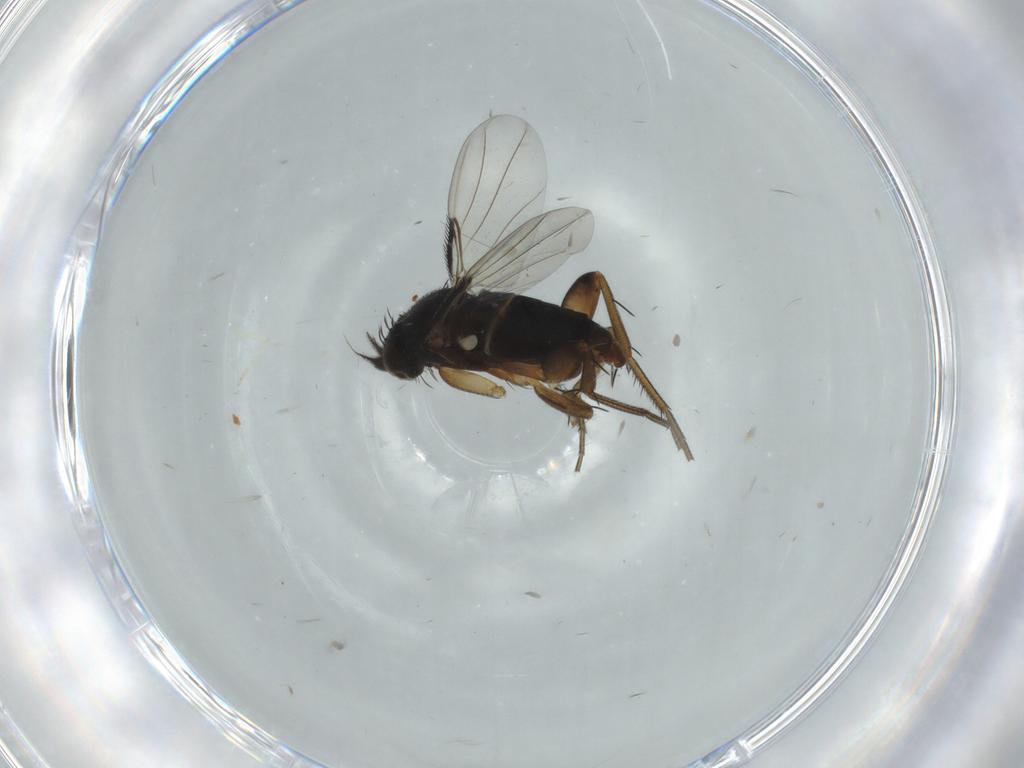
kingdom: Animalia
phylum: Arthropoda
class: Insecta
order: Diptera
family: Phoridae
